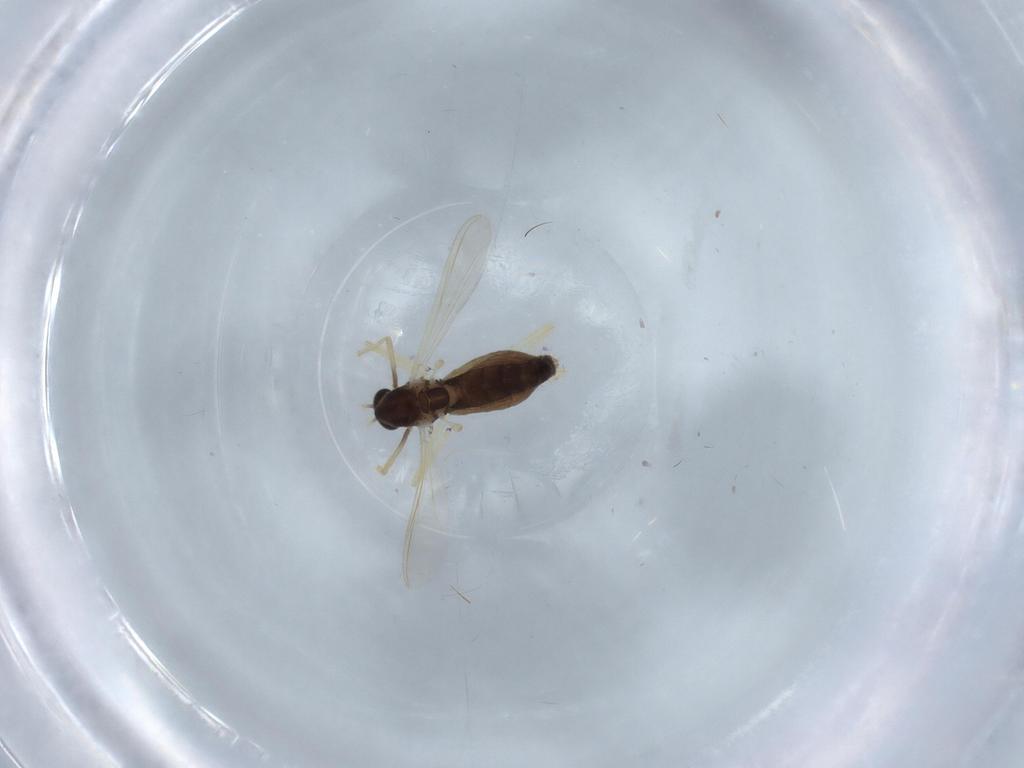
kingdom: Animalia
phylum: Arthropoda
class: Insecta
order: Diptera
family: Chironomidae
